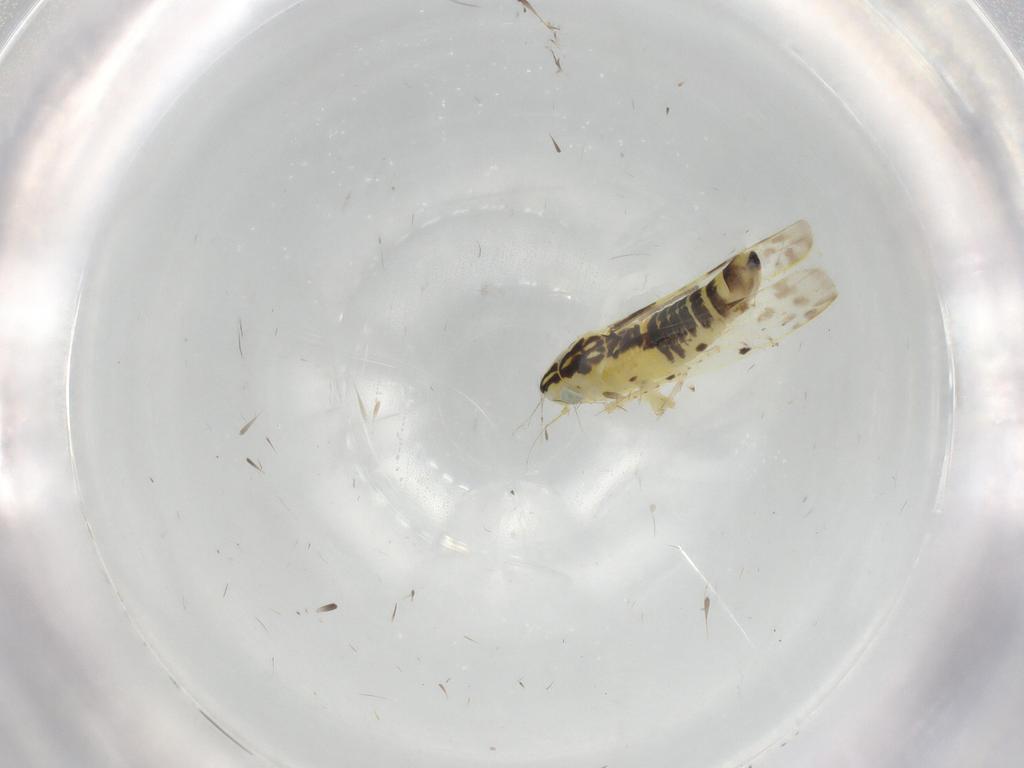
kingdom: Animalia
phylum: Arthropoda
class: Insecta
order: Hemiptera
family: Cicadellidae
